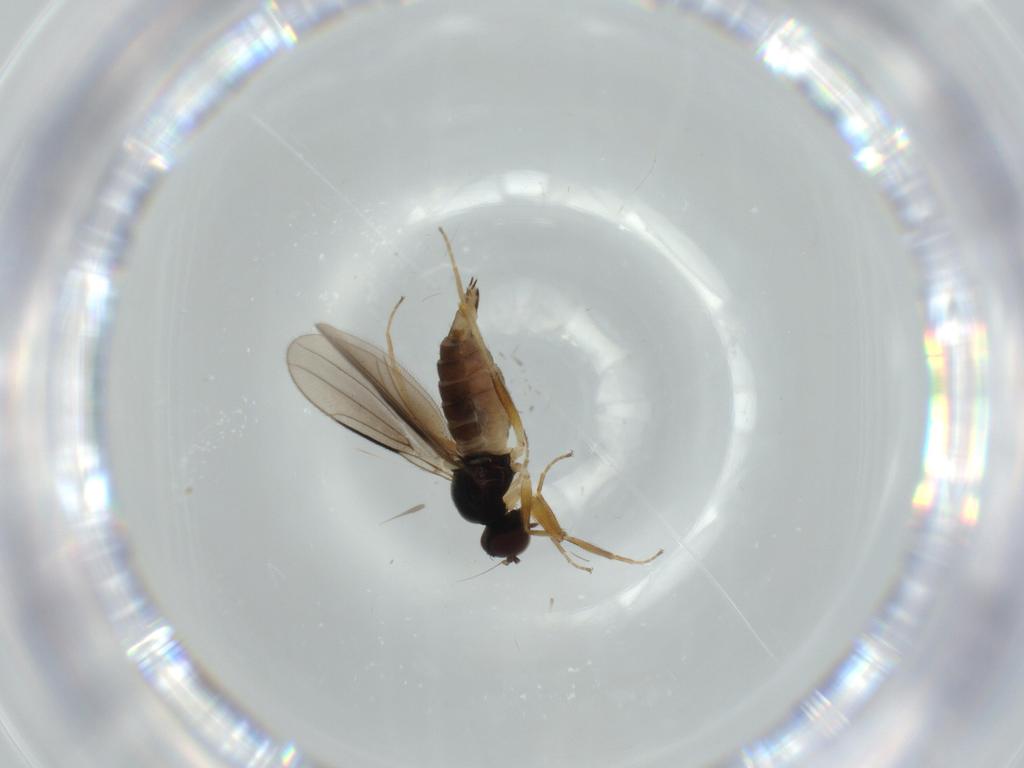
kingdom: Animalia
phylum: Arthropoda
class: Insecta
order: Diptera
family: Hybotidae
